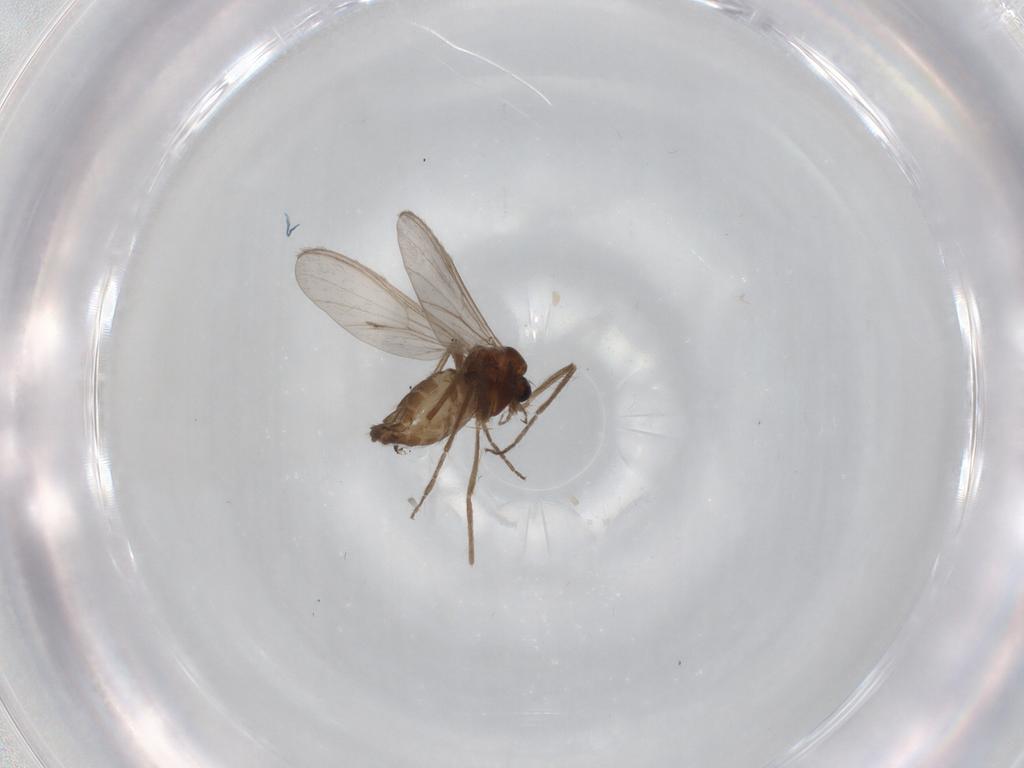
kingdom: Animalia
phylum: Arthropoda
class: Insecta
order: Diptera
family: Chironomidae
